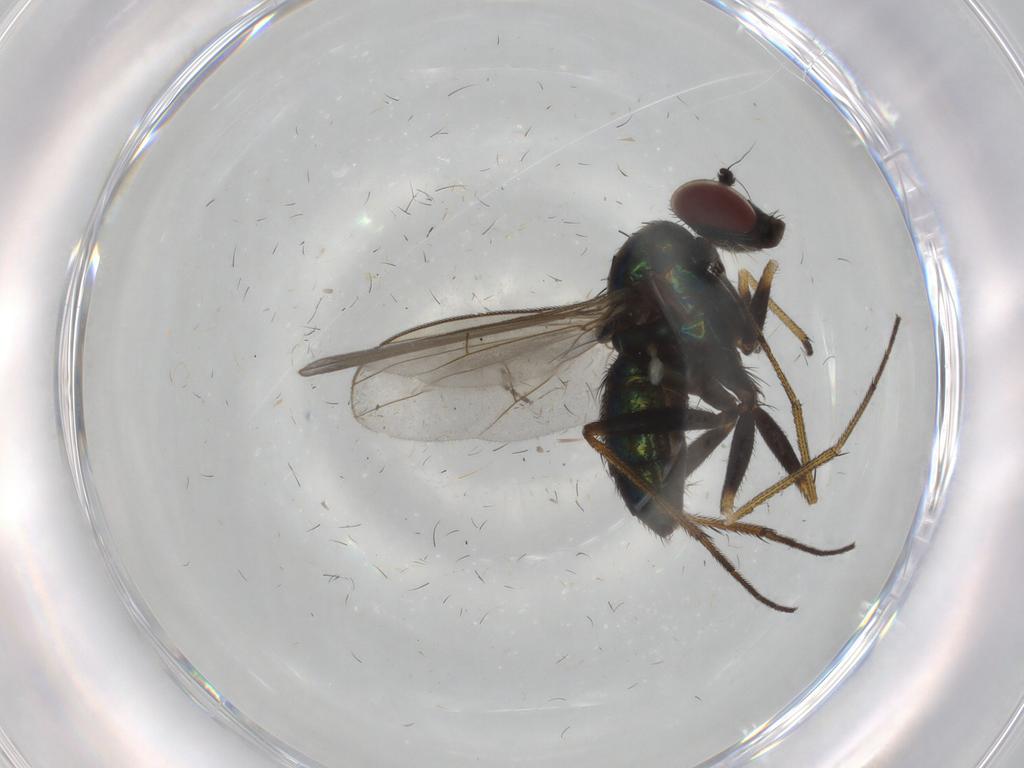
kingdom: Animalia
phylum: Arthropoda
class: Insecta
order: Diptera
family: Dolichopodidae
